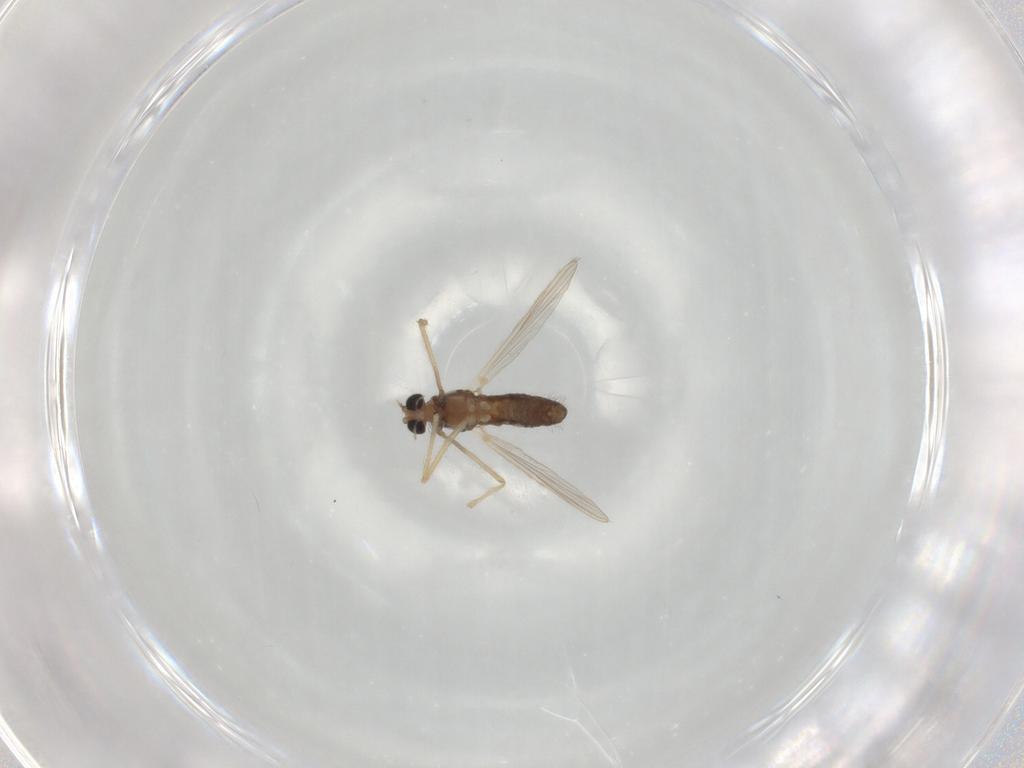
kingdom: Animalia
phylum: Arthropoda
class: Insecta
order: Diptera
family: Chironomidae
